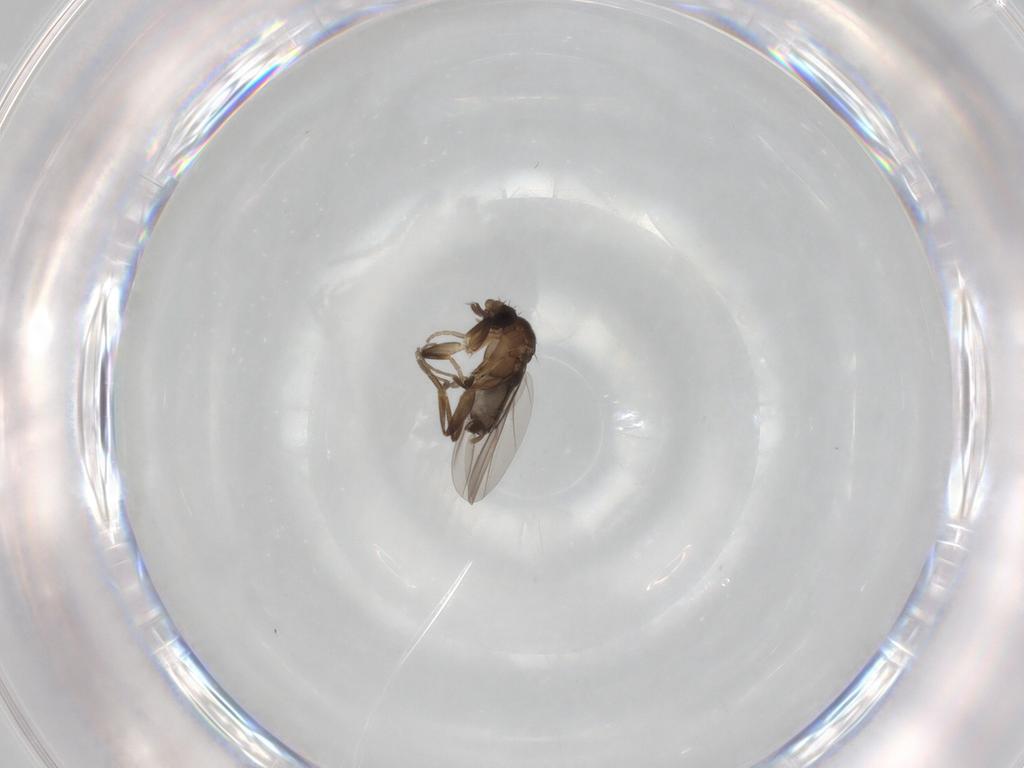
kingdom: Animalia
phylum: Arthropoda
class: Insecta
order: Diptera
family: Phoridae
